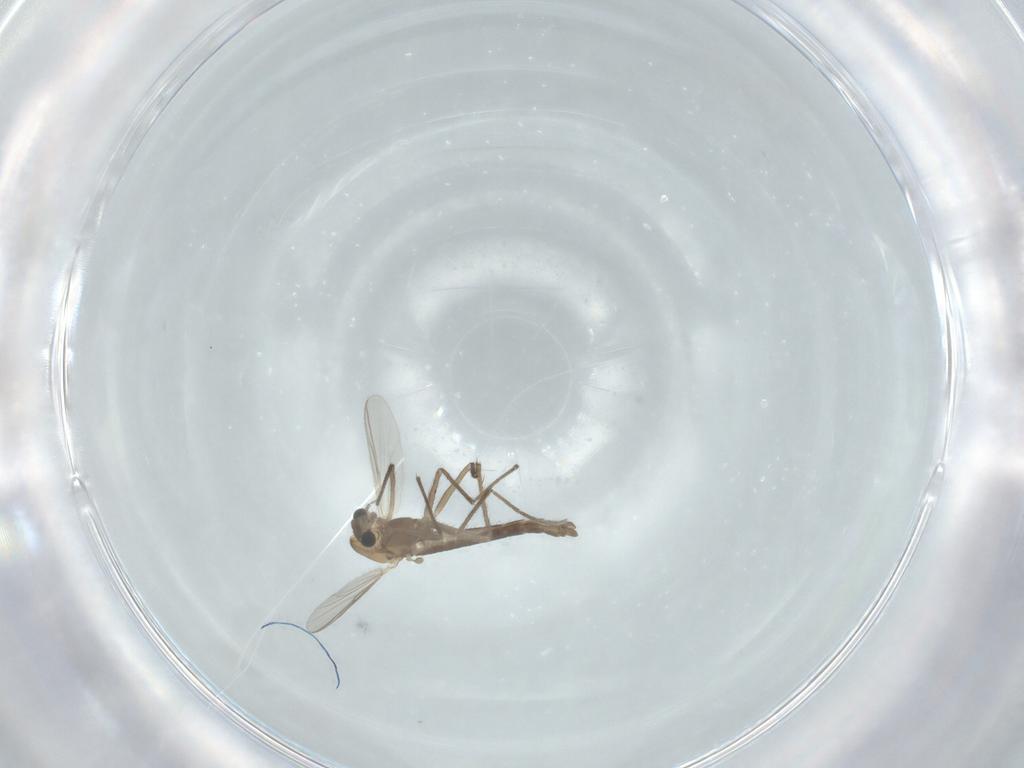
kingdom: Animalia
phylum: Arthropoda
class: Insecta
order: Diptera
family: Chironomidae
